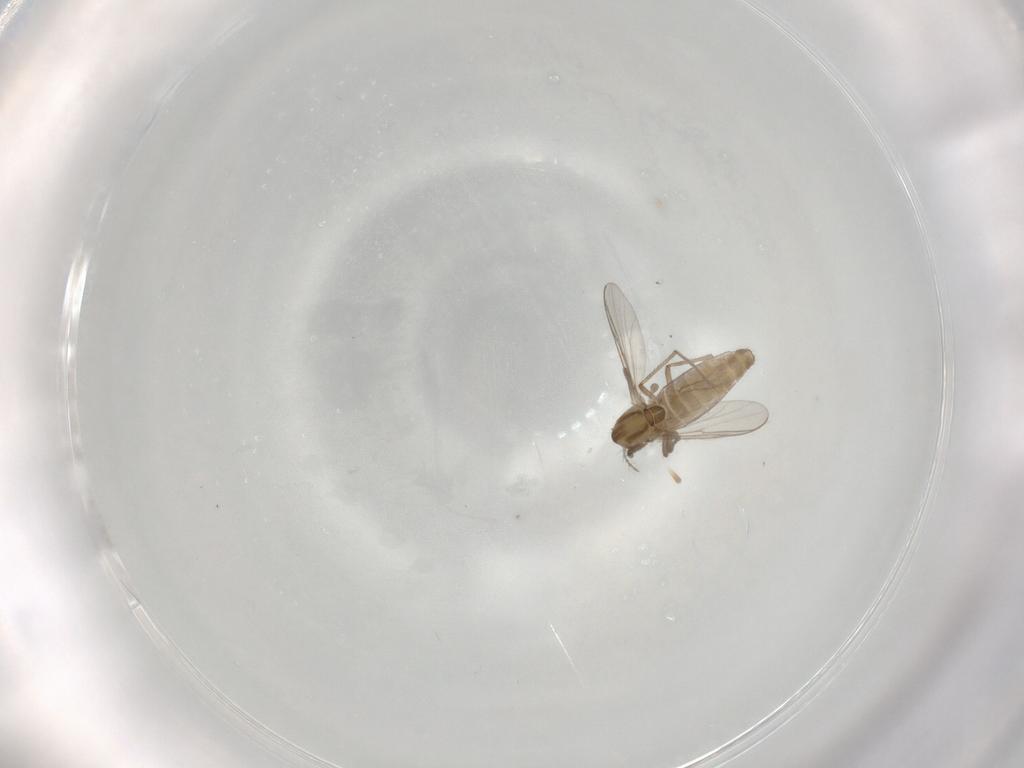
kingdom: Animalia
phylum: Arthropoda
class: Insecta
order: Diptera
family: Chironomidae
